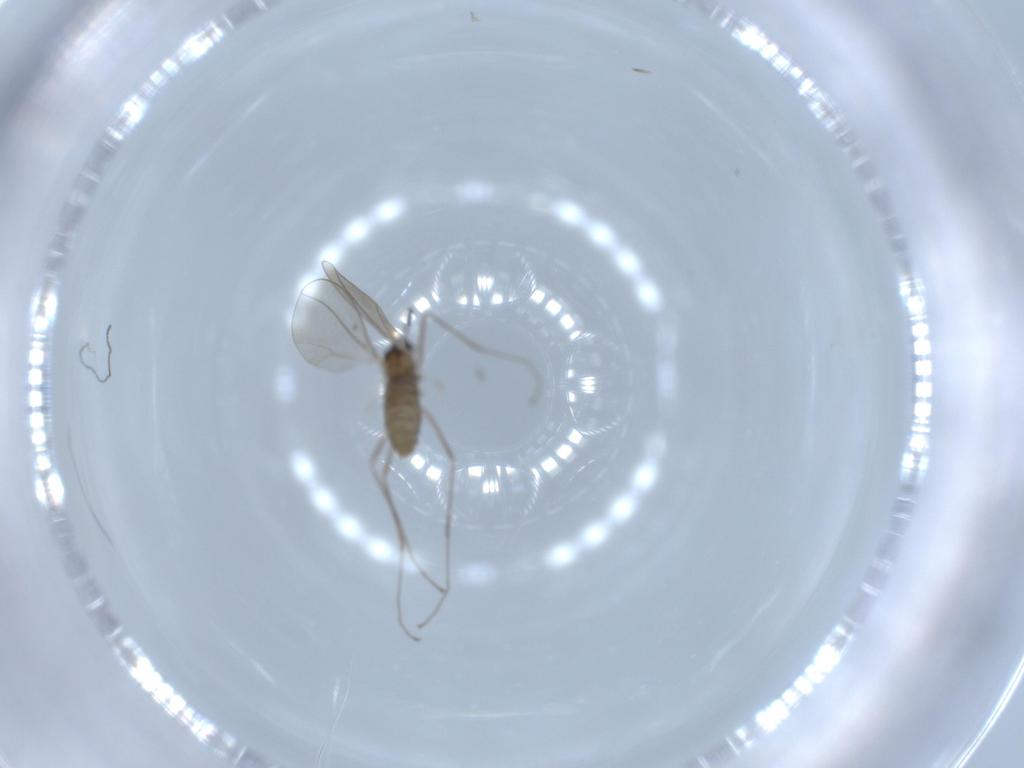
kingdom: Animalia
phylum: Arthropoda
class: Insecta
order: Diptera
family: Cecidomyiidae
